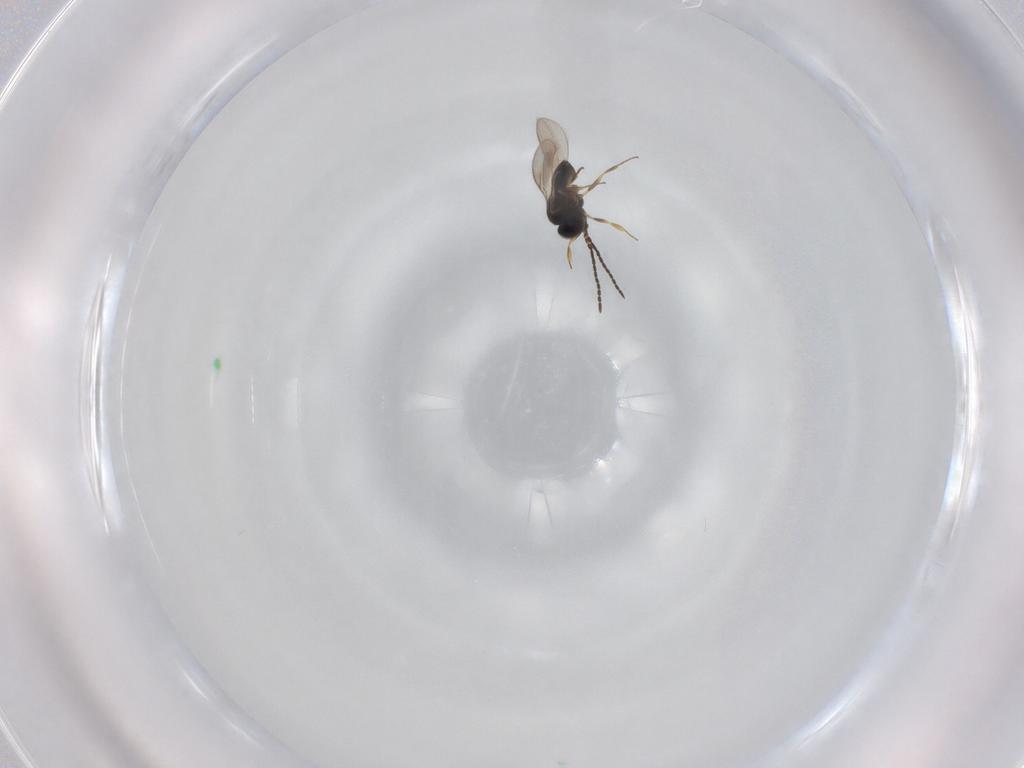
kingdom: Animalia
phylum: Arthropoda
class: Insecta
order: Hymenoptera
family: Scelionidae
